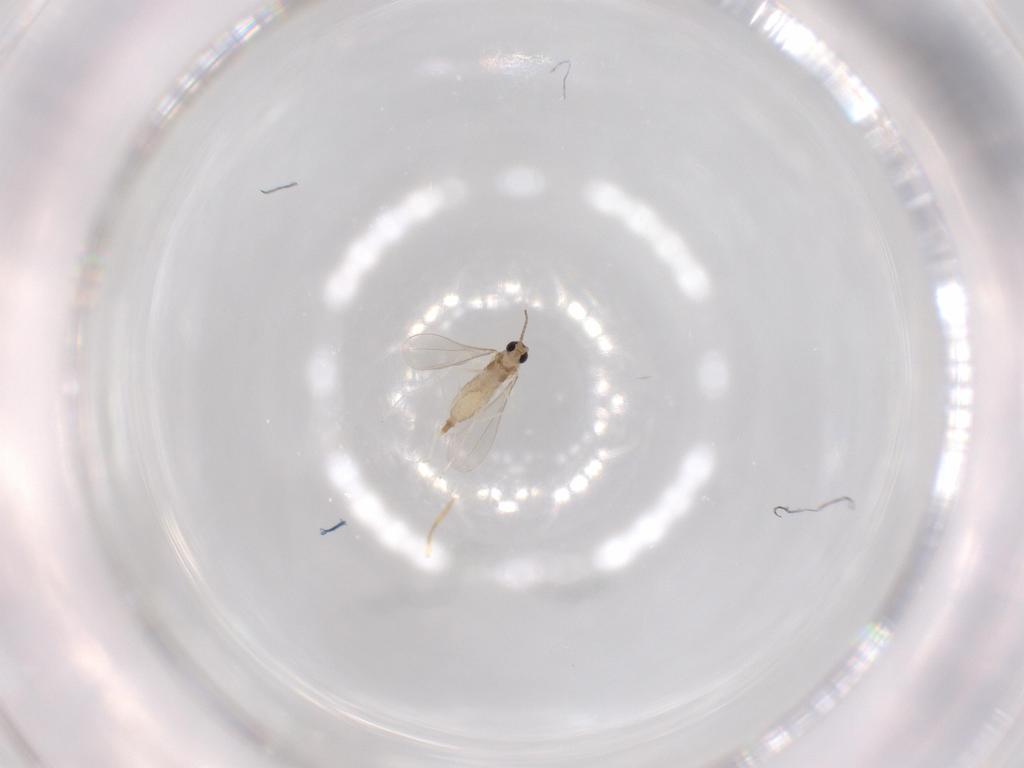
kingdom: Animalia
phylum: Arthropoda
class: Insecta
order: Diptera
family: Cecidomyiidae
